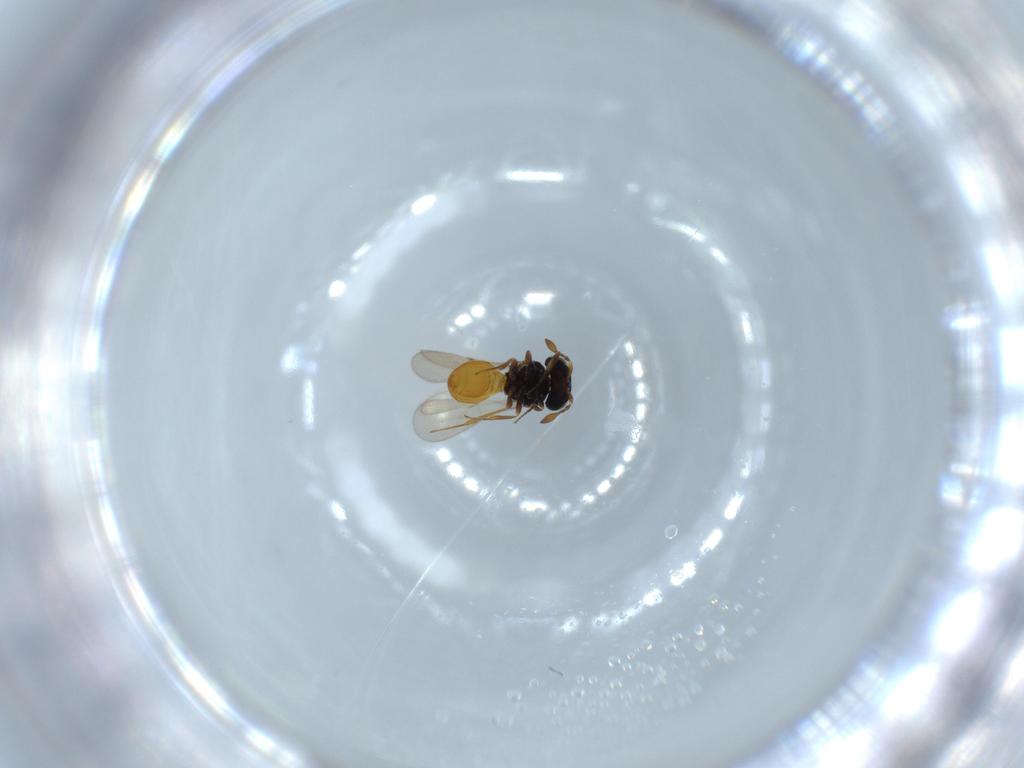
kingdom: Animalia
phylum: Arthropoda
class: Insecta
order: Hymenoptera
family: Scelionidae
